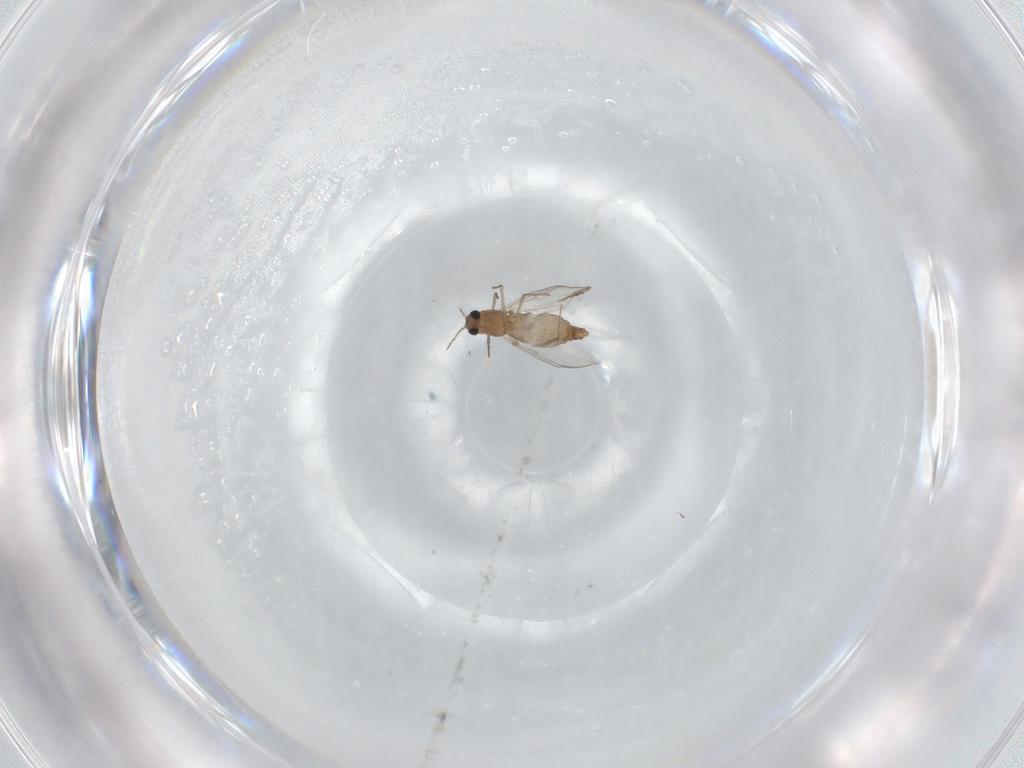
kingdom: Animalia
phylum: Arthropoda
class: Insecta
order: Diptera
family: Chironomidae
